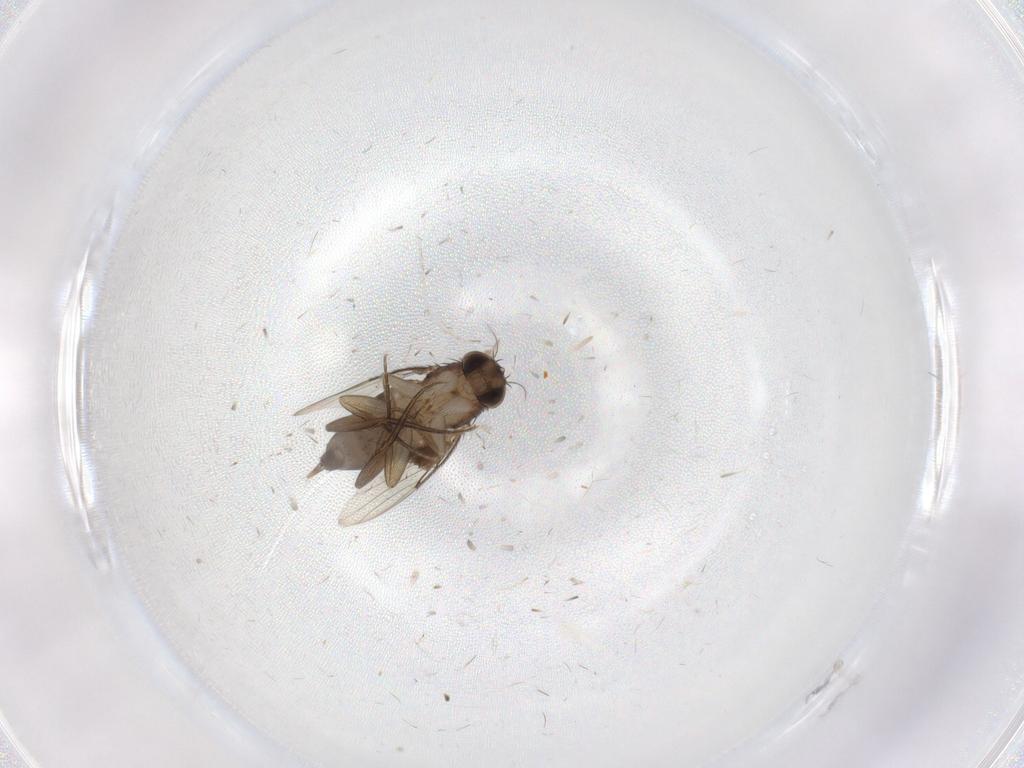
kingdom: Animalia
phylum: Arthropoda
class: Insecta
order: Diptera
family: Phoridae
